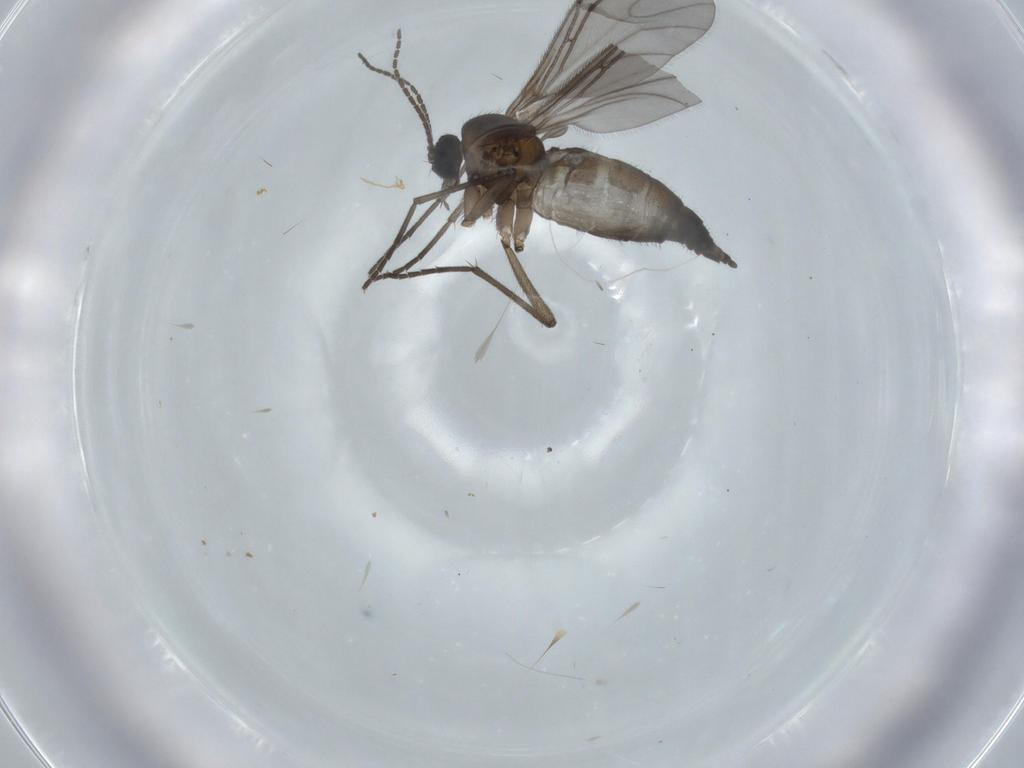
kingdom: Animalia
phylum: Arthropoda
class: Insecta
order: Diptera
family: Sciaridae
